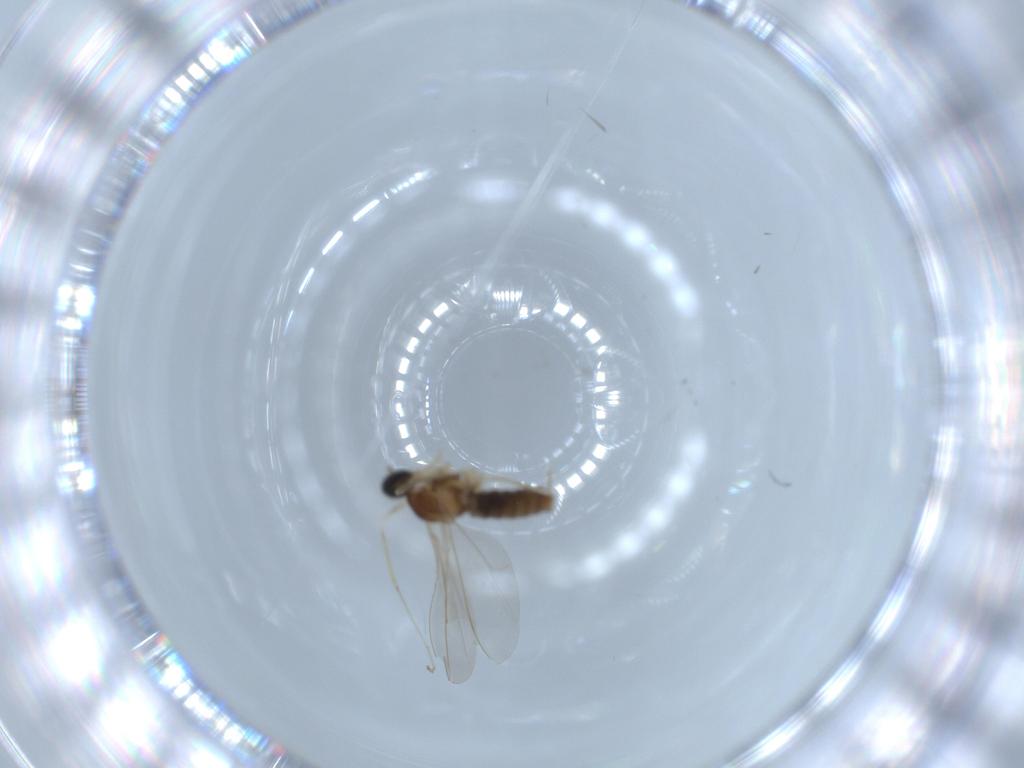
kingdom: Animalia
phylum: Arthropoda
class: Insecta
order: Diptera
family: Cecidomyiidae
